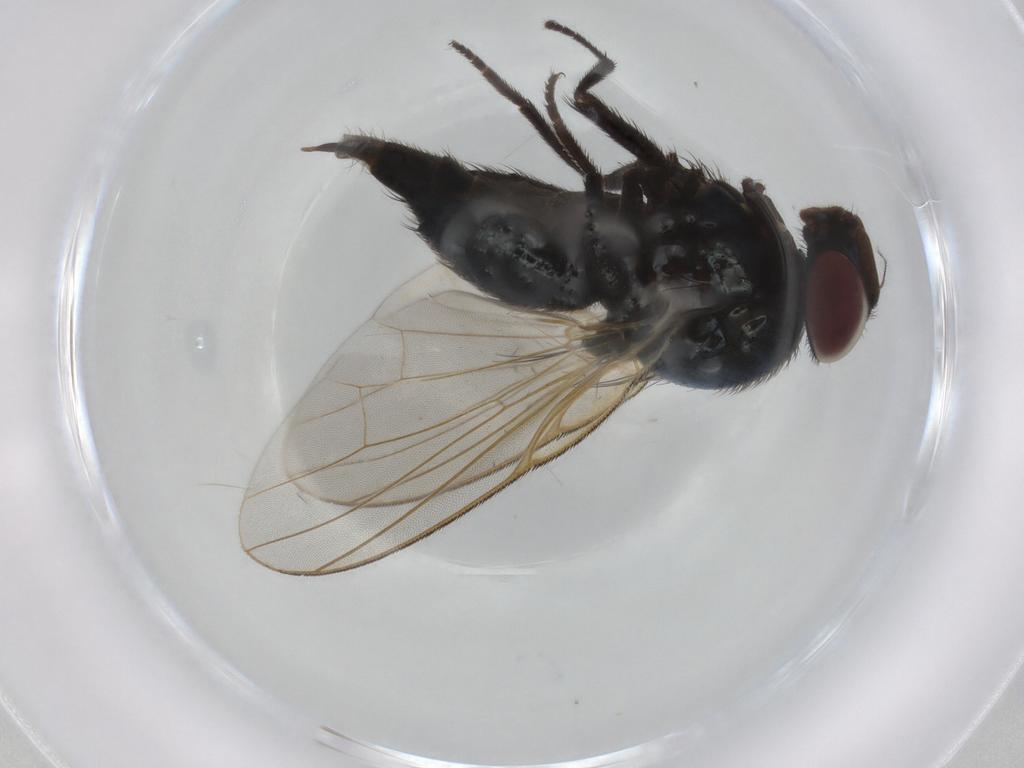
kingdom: Animalia
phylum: Arthropoda
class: Insecta
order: Diptera
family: Cecidomyiidae
